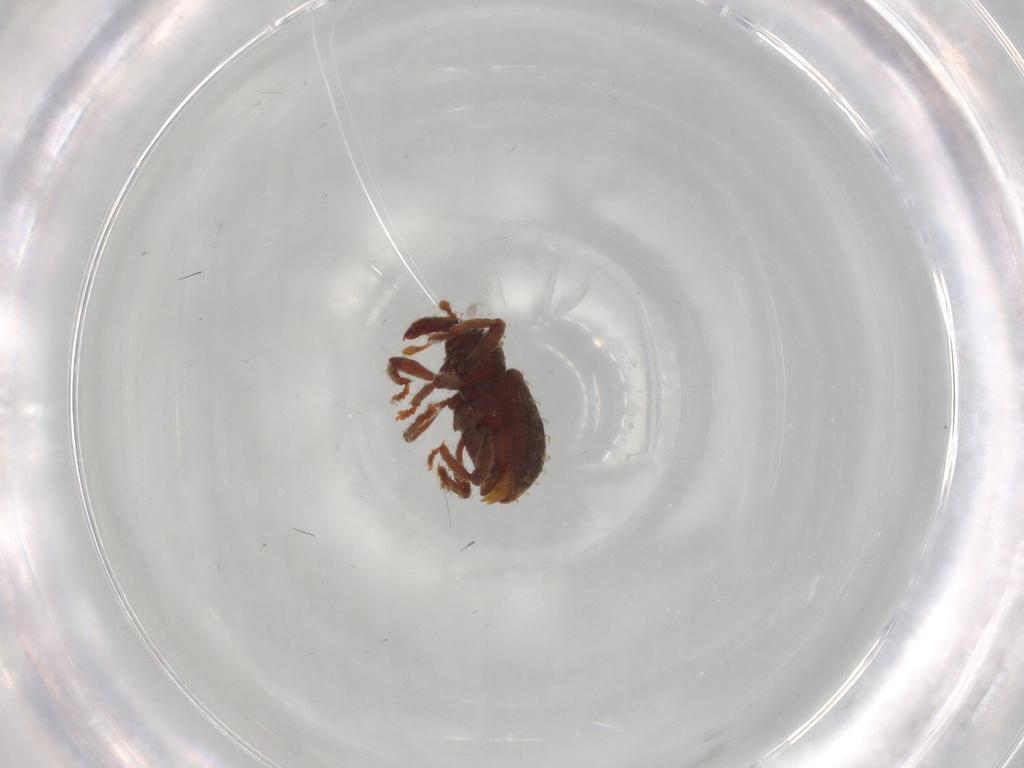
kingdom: Animalia
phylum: Arthropoda
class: Insecta
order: Coleoptera
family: Curculionidae
